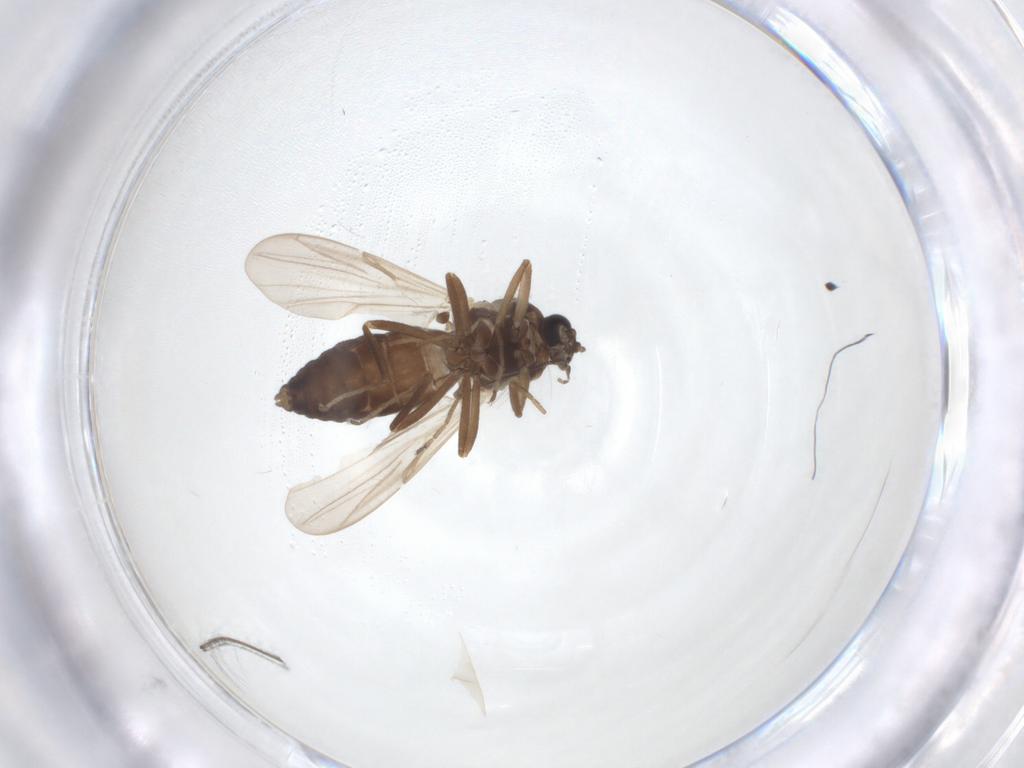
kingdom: Animalia
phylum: Arthropoda
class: Insecta
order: Diptera
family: Ceratopogonidae
